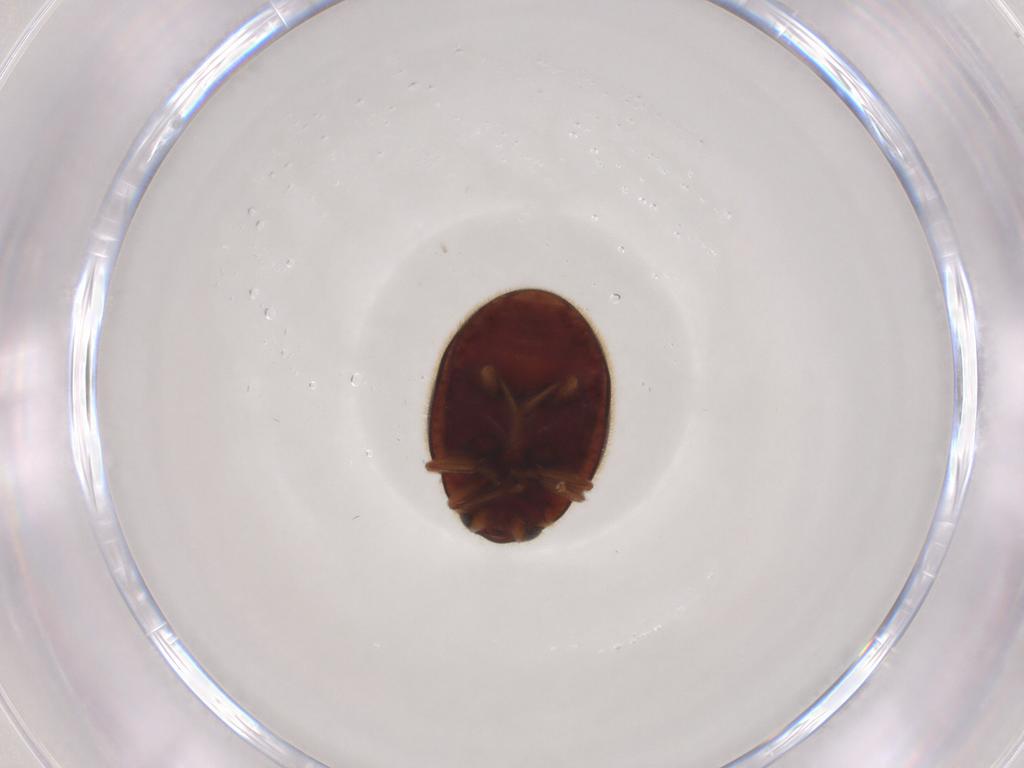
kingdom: Animalia
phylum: Arthropoda
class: Insecta
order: Coleoptera
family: Coccinellidae
